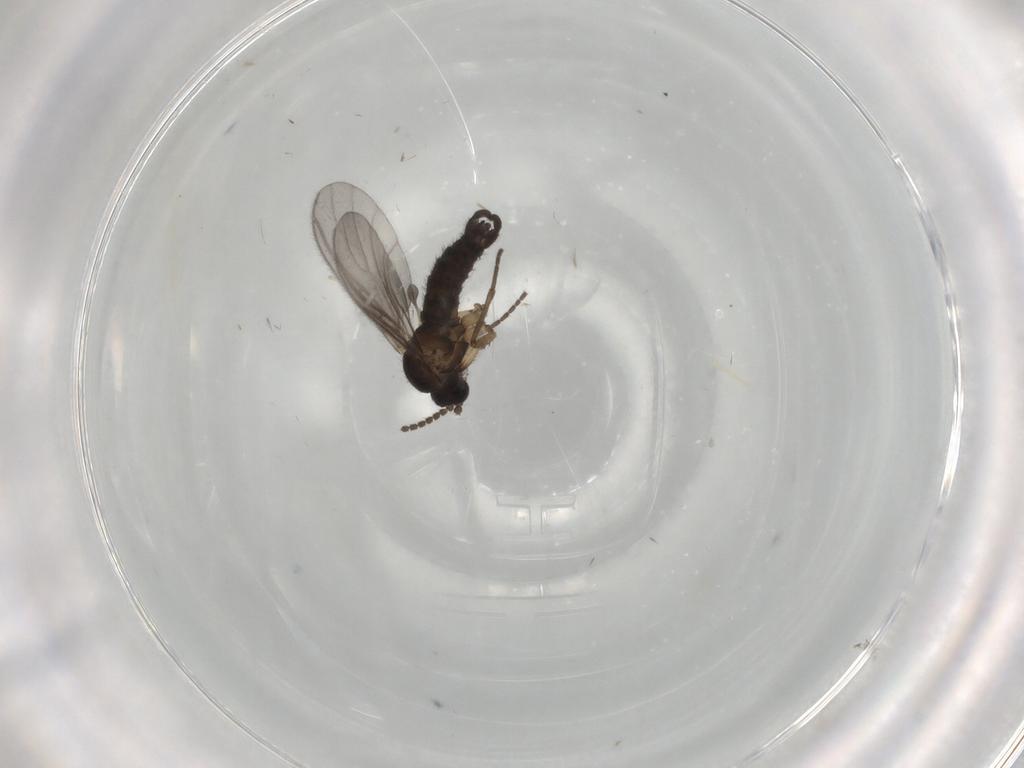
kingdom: Animalia
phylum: Arthropoda
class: Insecta
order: Diptera
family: Sciaridae
